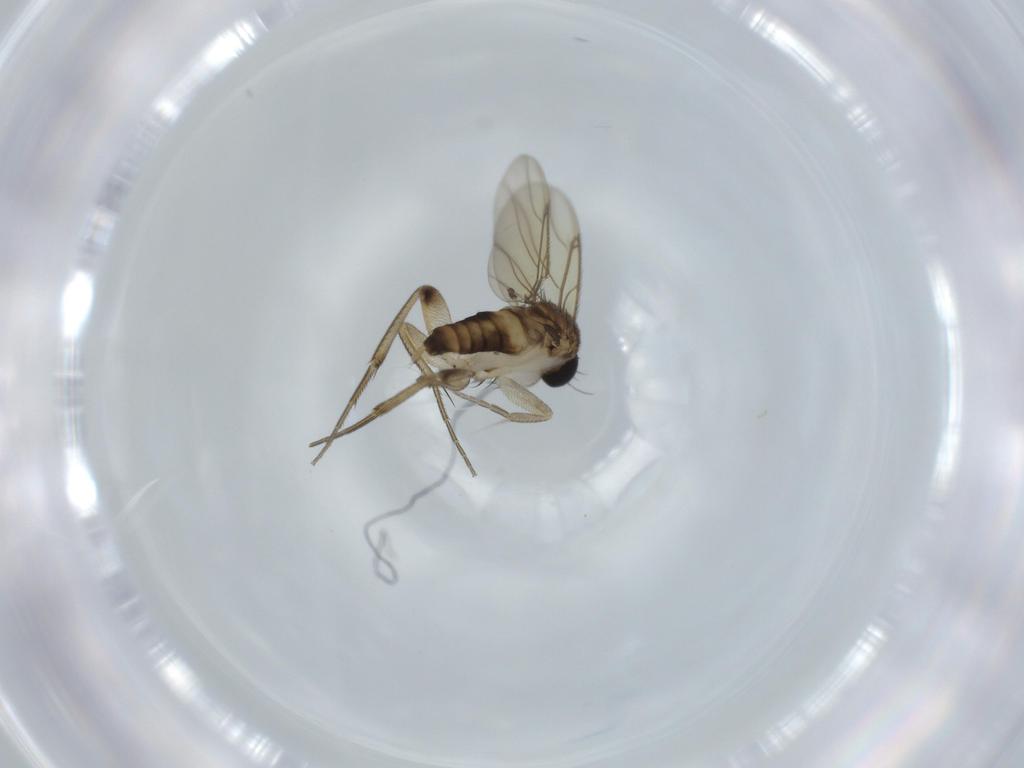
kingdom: Animalia
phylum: Arthropoda
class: Insecta
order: Diptera
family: Phoridae
